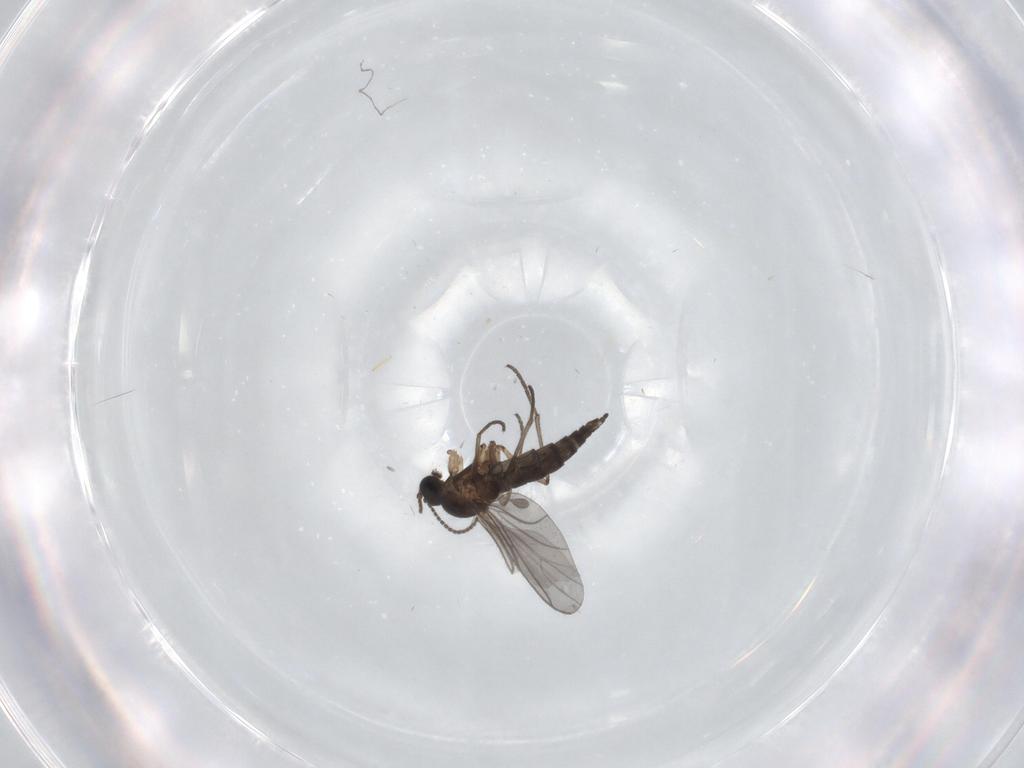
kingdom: Animalia
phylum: Arthropoda
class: Insecta
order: Diptera
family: Sciaridae
